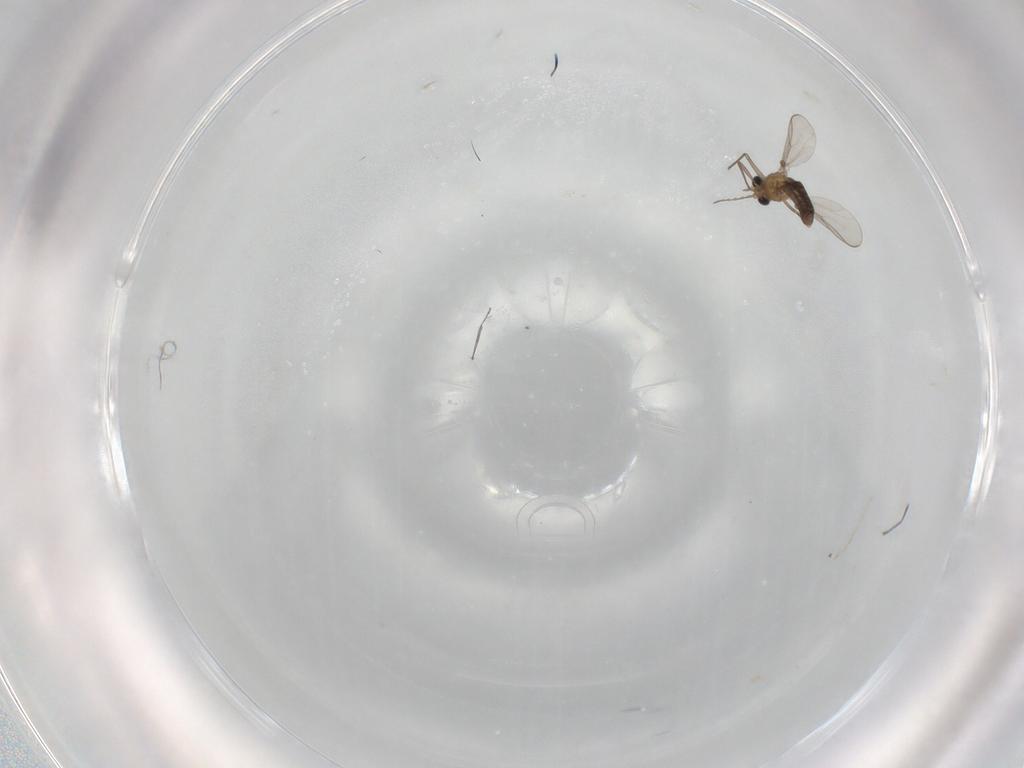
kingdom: Animalia
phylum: Arthropoda
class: Insecta
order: Diptera
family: Chironomidae
